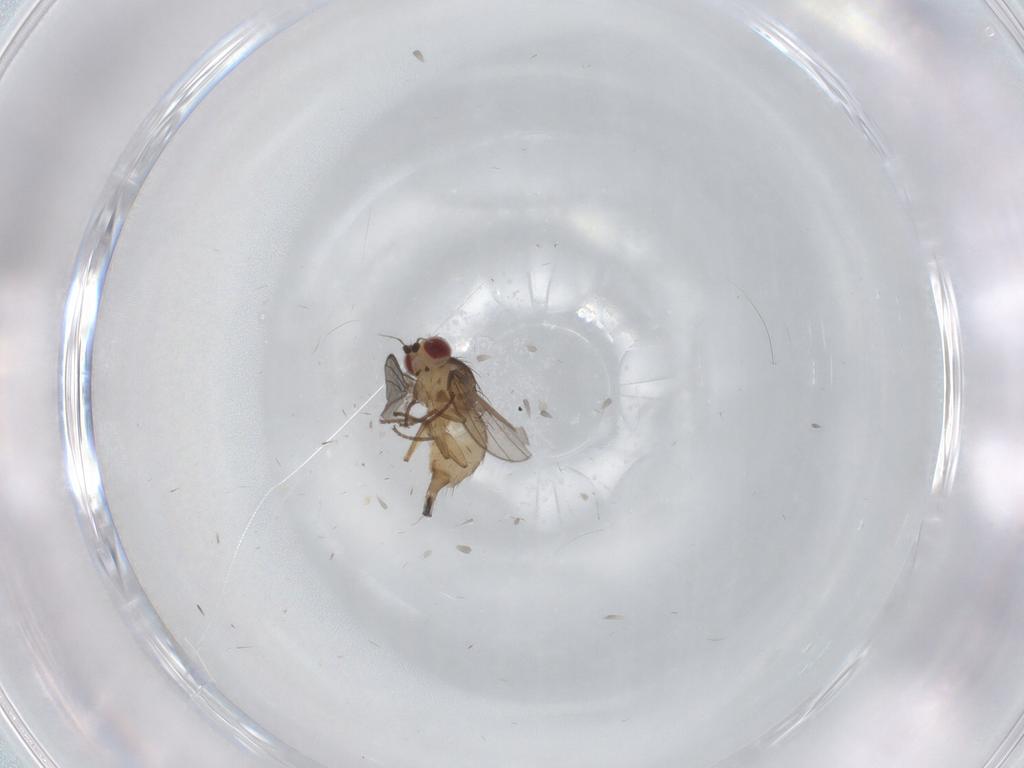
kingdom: Animalia
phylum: Arthropoda
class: Insecta
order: Diptera
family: Agromyzidae
